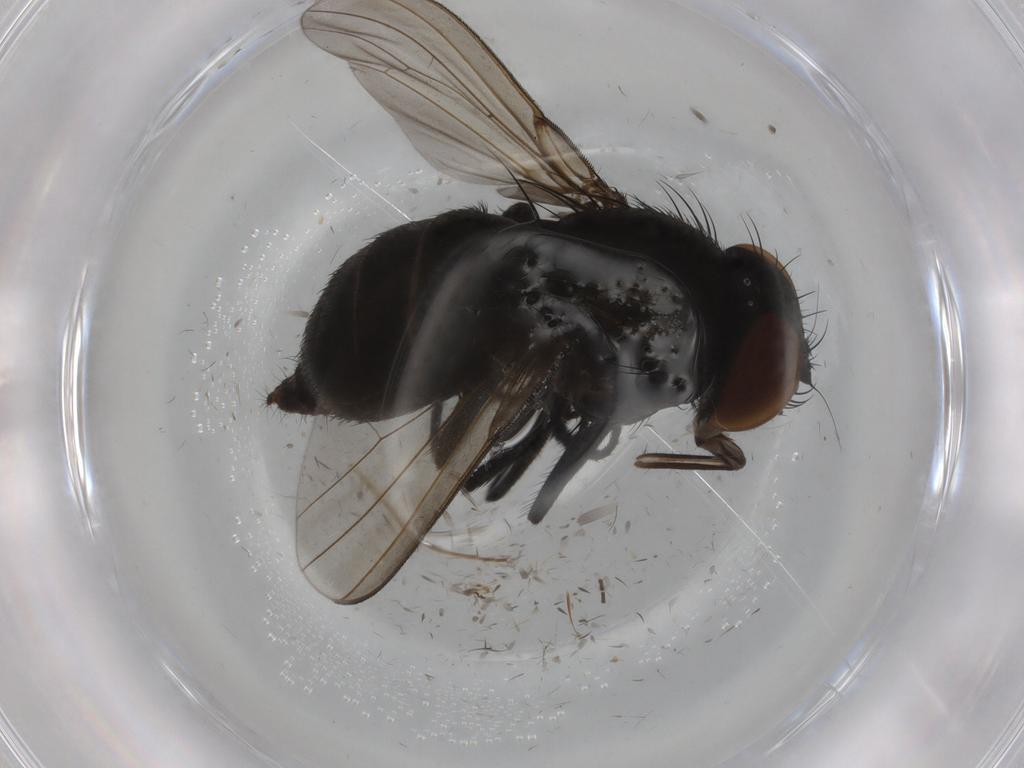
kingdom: Animalia
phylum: Arthropoda
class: Insecta
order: Diptera
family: Milichiidae
